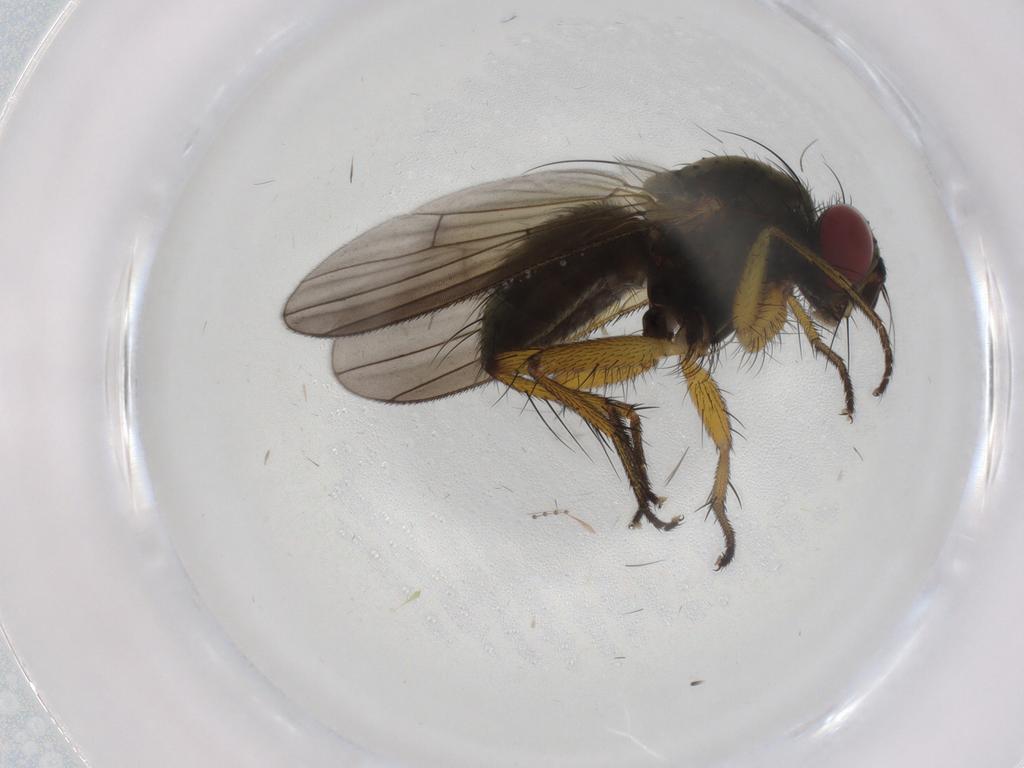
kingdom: Animalia
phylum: Arthropoda
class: Insecta
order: Diptera
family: Muscidae
